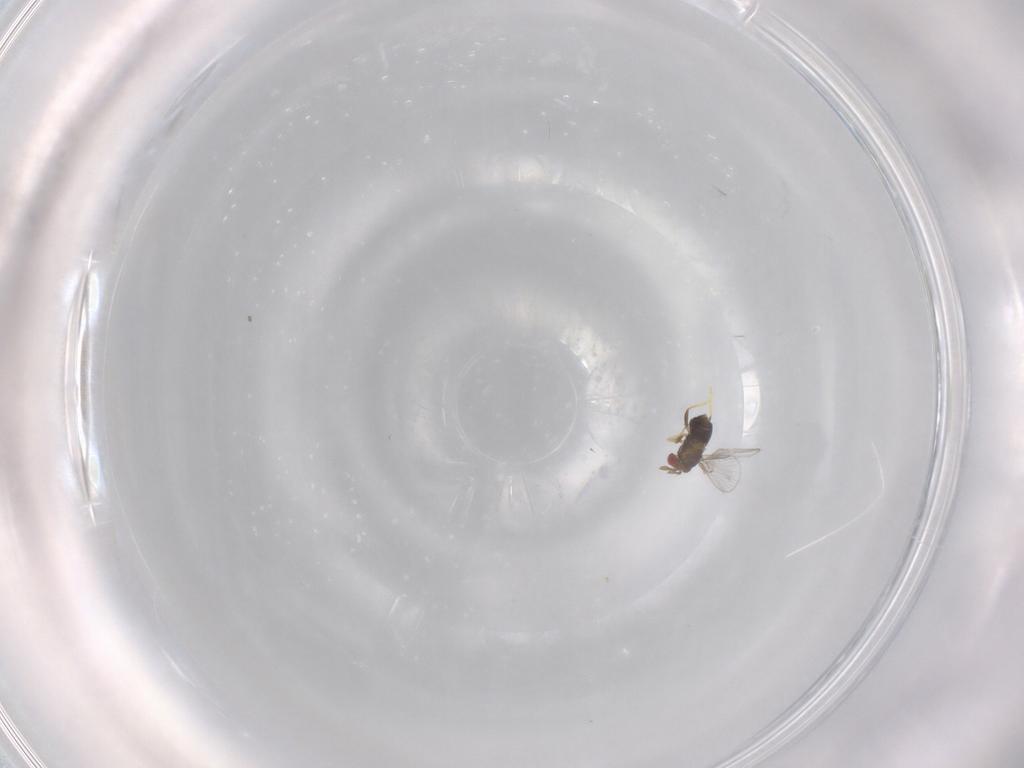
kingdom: Animalia
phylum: Arthropoda
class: Insecta
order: Hymenoptera
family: Trichogrammatidae
